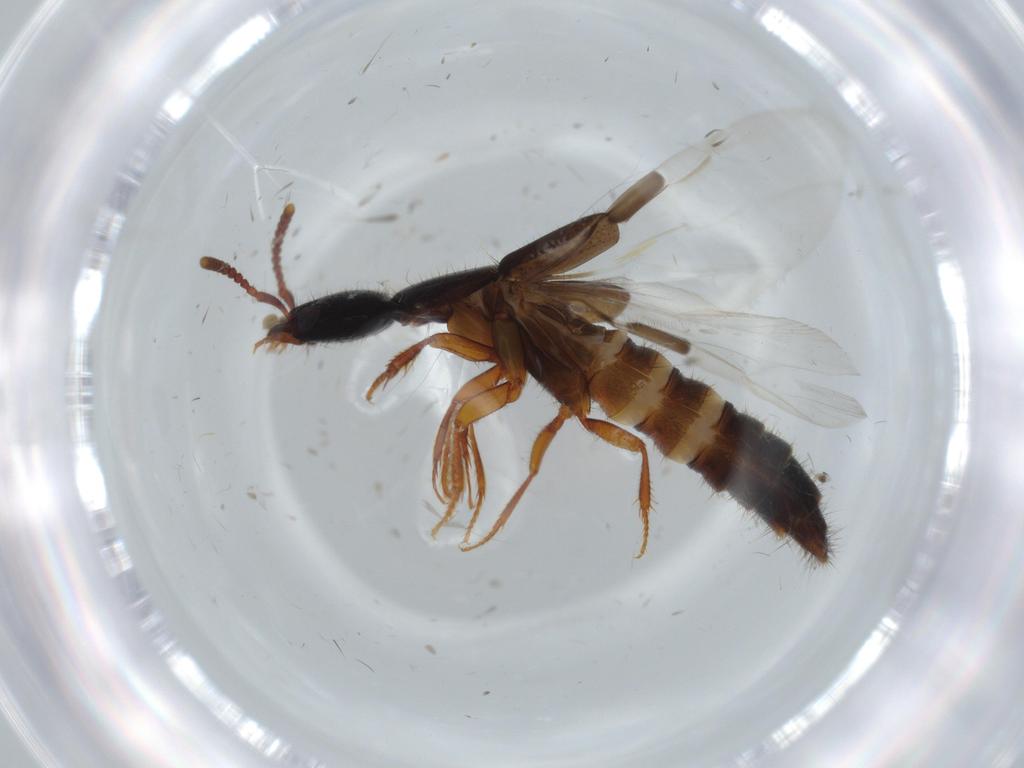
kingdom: Animalia
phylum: Arthropoda
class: Insecta
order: Coleoptera
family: Staphylinidae
